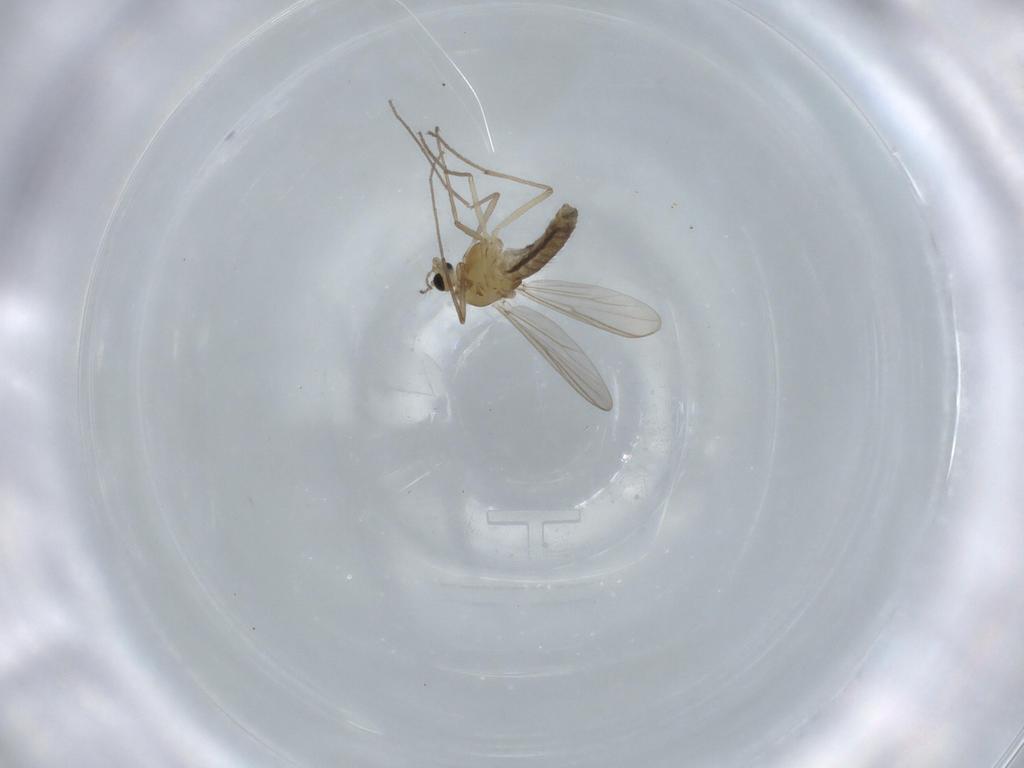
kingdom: Animalia
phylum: Arthropoda
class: Insecta
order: Diptera
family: Chironomidae
